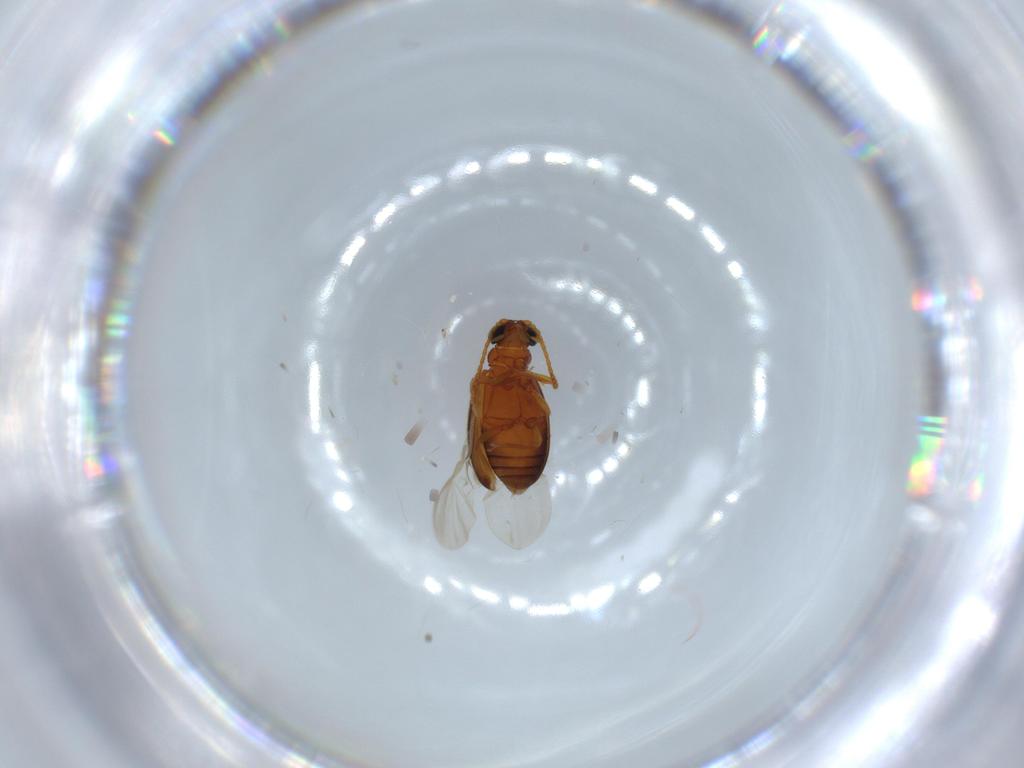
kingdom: Animalia
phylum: Arthropoda
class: Insecta
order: Coleoptera
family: Aderidae
